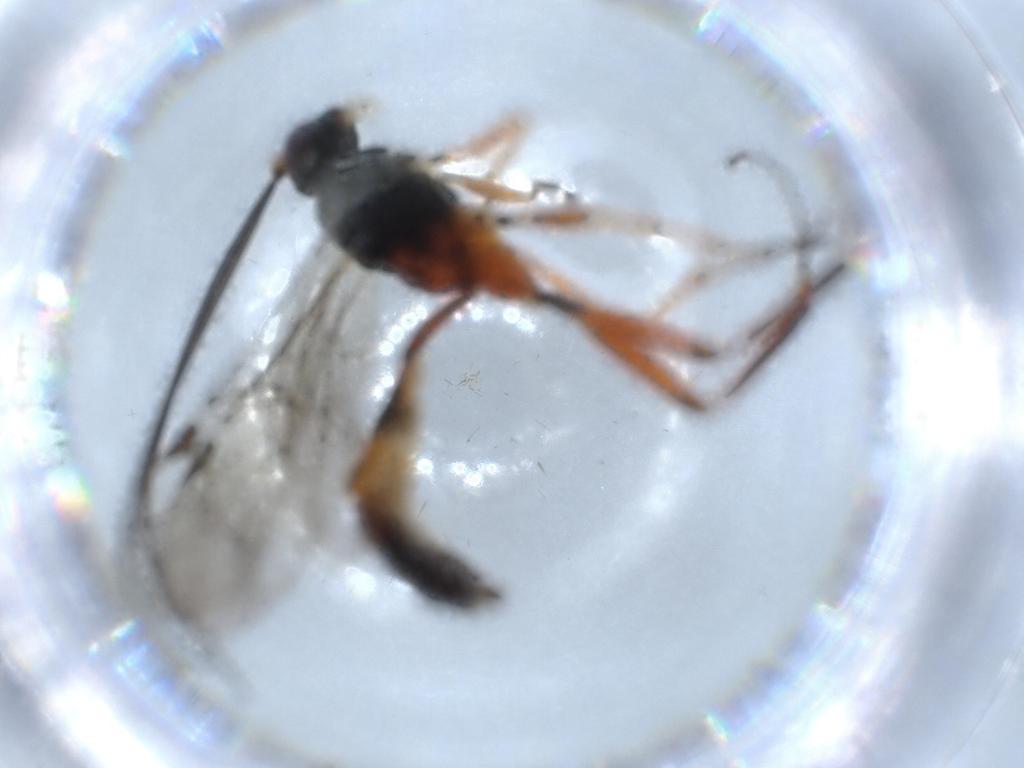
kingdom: Animalia
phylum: Arthropoda
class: Insecta
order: Hymenoptera
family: Ichneumonidae
